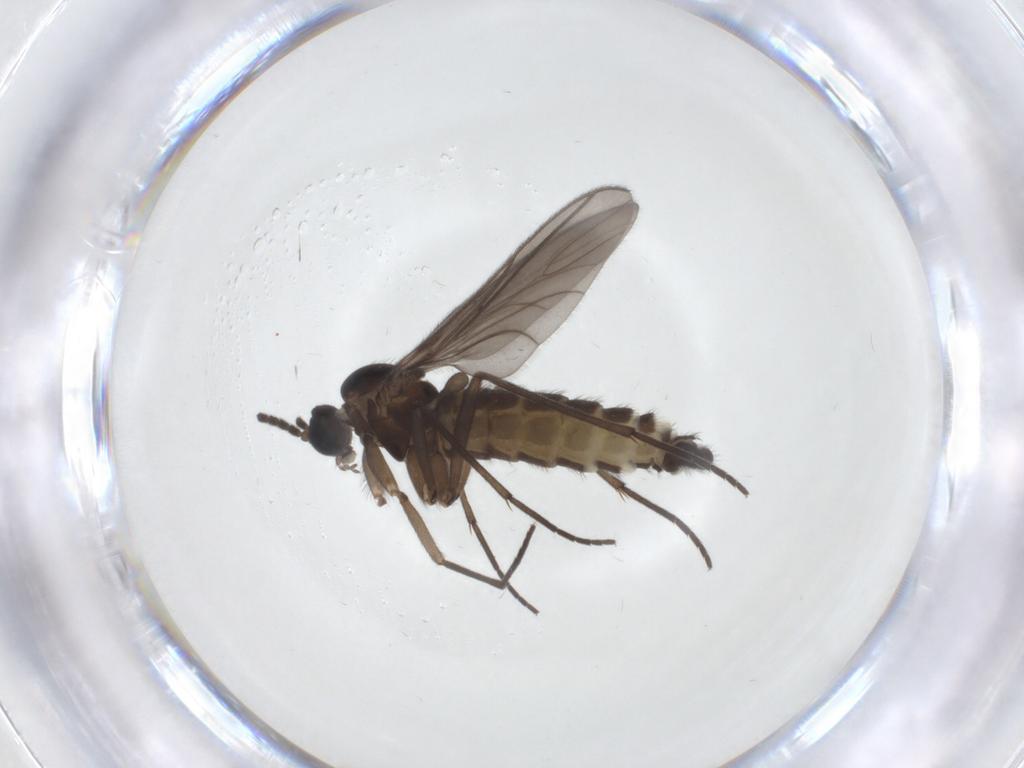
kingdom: Animalia
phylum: Arthropoda
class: Insecta
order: Diptera
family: Sciaridae
